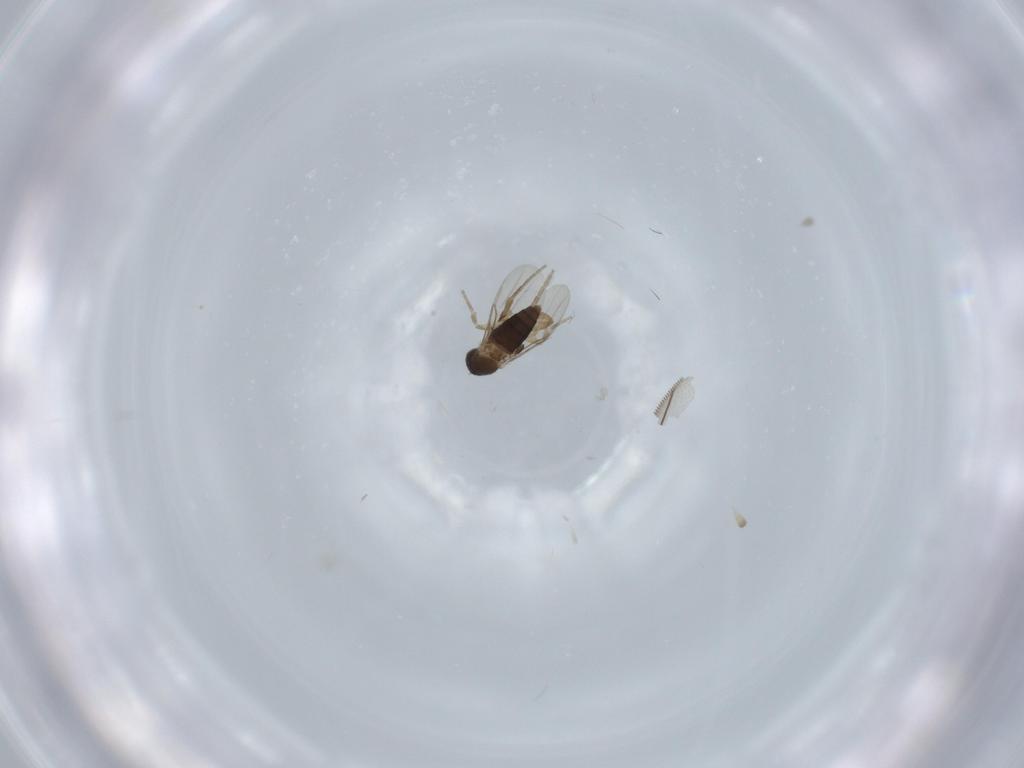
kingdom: Animalia
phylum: Arthropoda
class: Insecta
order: Diptera
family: Phoridae
